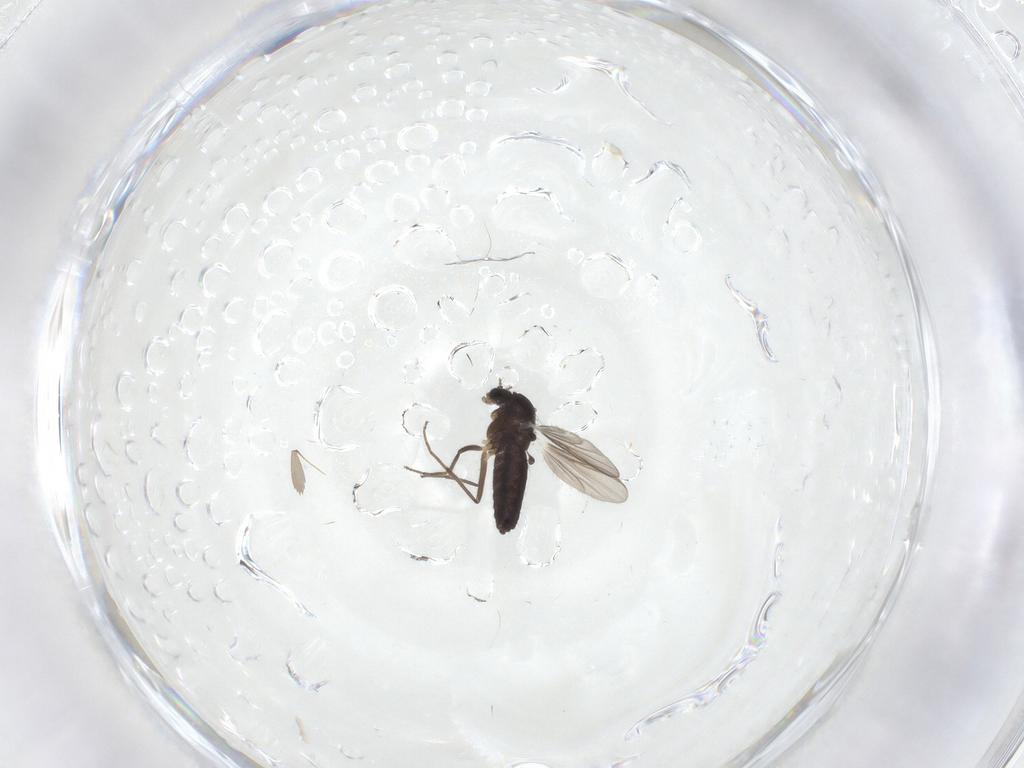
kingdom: Animalia
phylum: Arthropoda
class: Insecta
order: Diptera
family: Chironomidae
